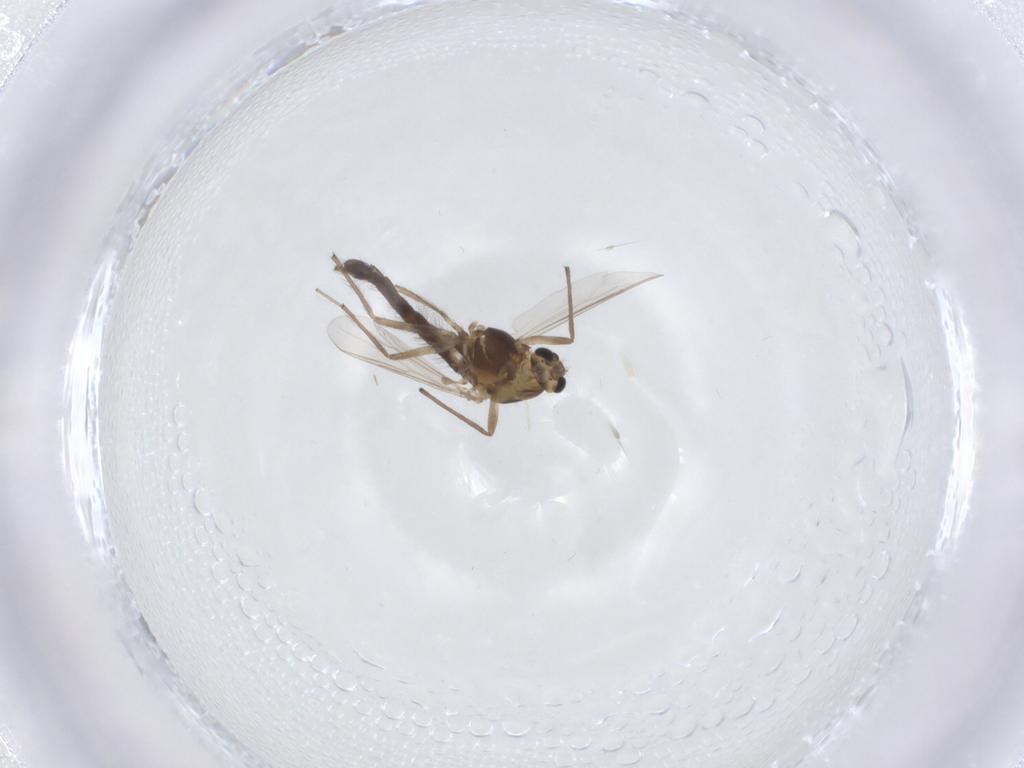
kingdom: Animalia
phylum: Arthropoda
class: Insecta
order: Diptera
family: Chironomidae
